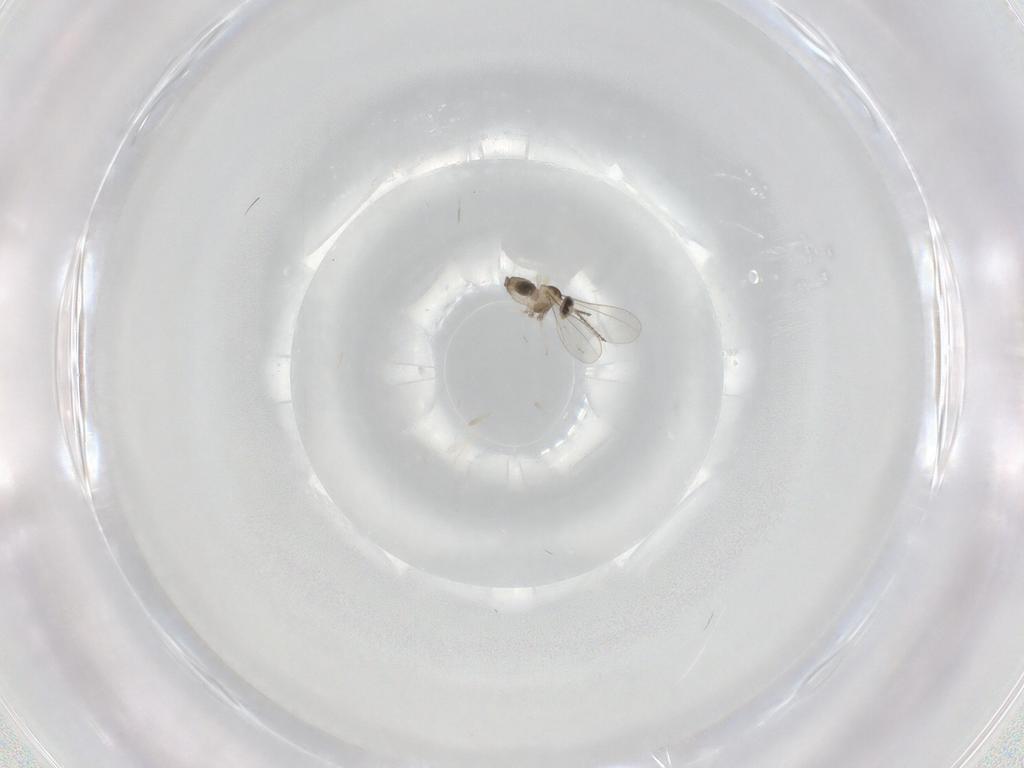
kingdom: Animalia
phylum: Arthropoda
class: Insecta
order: Diptera
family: Cecidomyiidae
